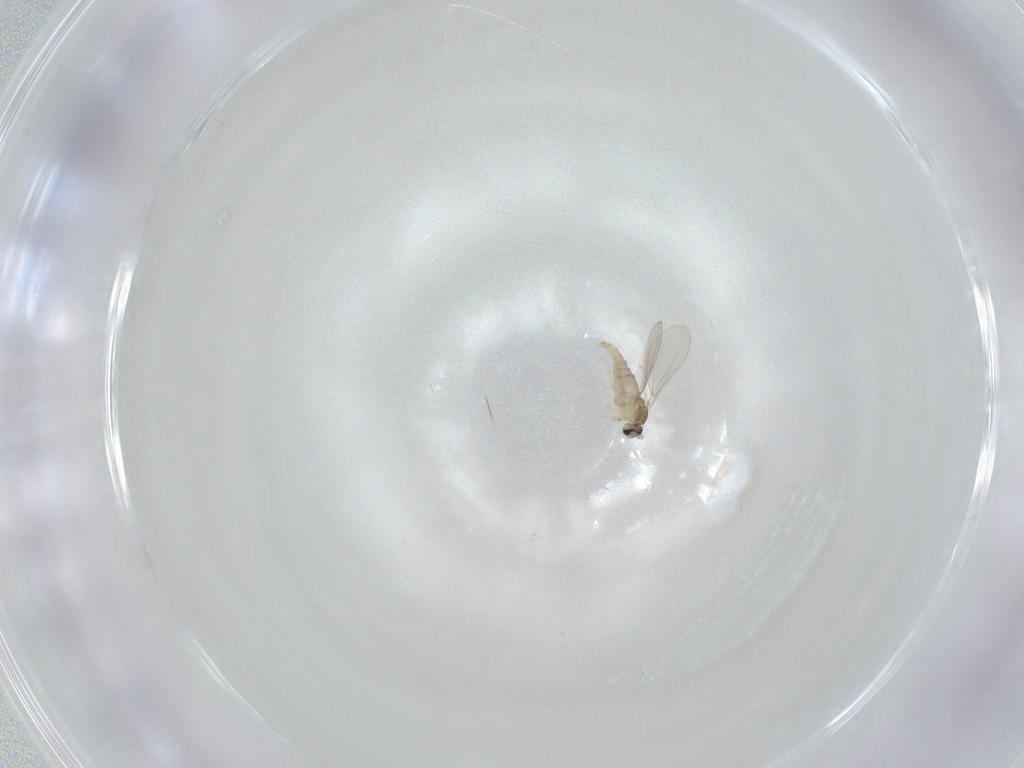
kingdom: Animalia
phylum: Arthropoda
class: Insecta
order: Diptera
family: Cecidomyiidae
